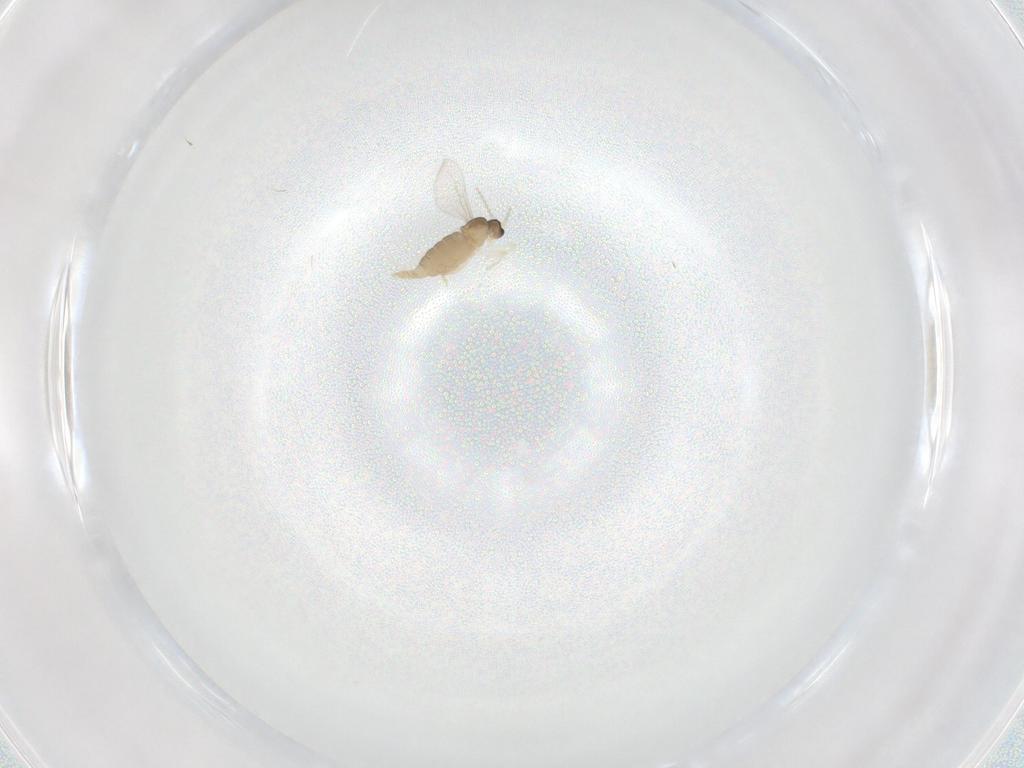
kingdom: Animalia
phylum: Arthropoda
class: Insecta
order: Diptera
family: Cecidomyiidae
